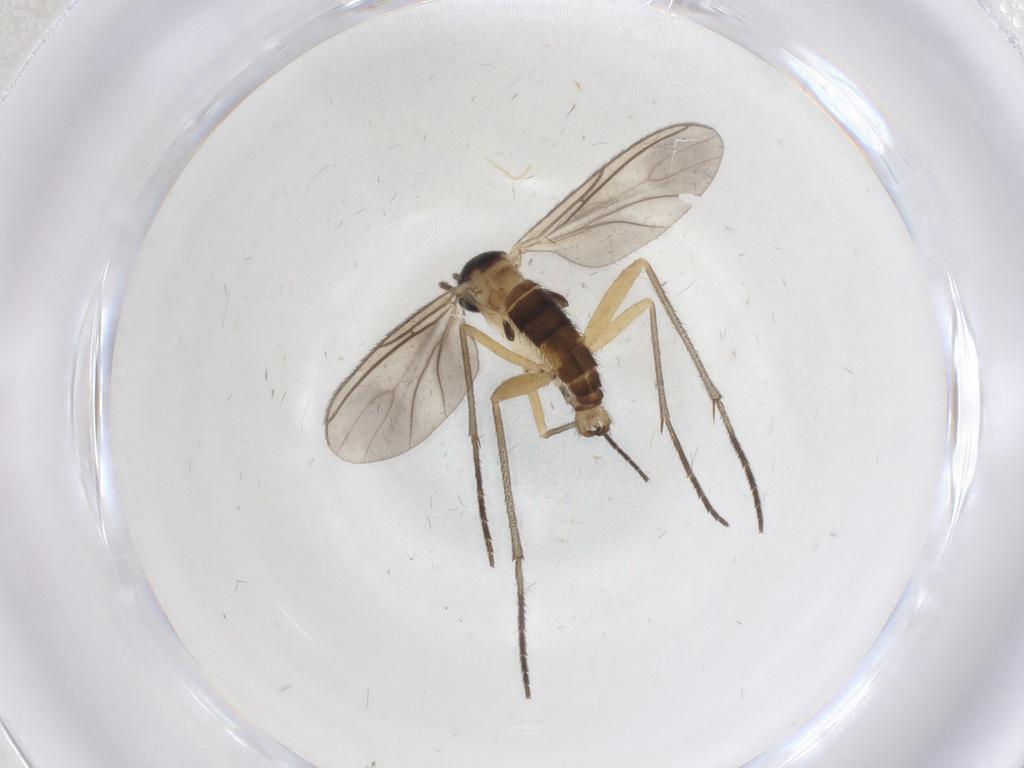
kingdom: Animalia
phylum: Arthropoda
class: Insecta
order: Diptera
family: Sciaridae
